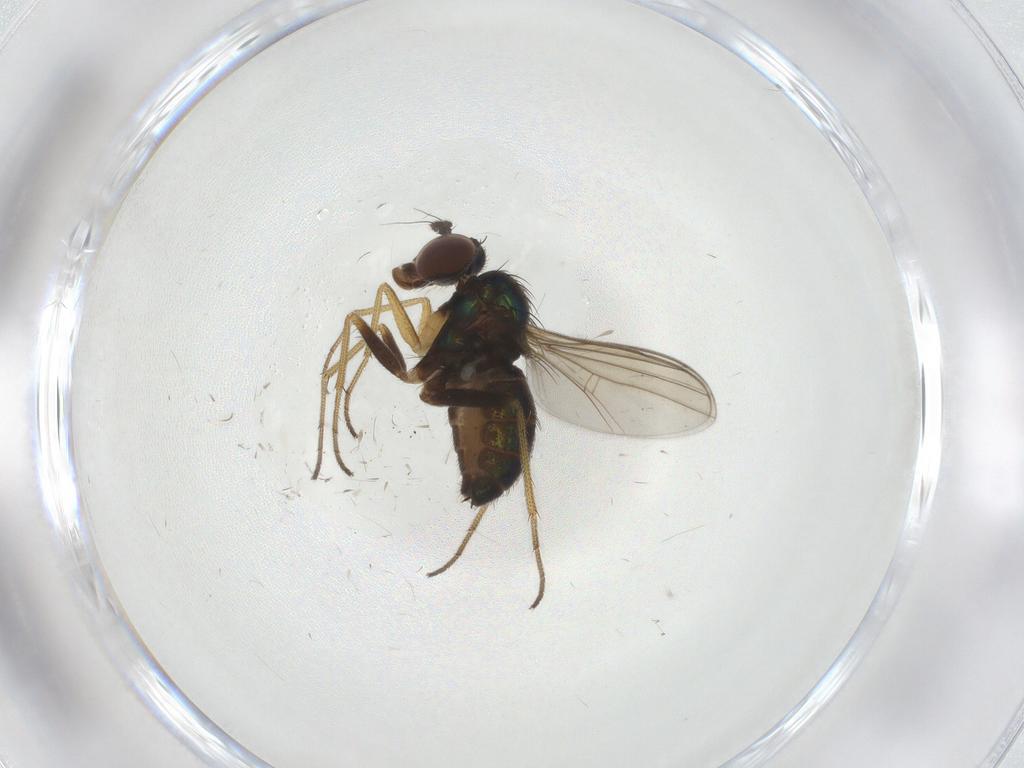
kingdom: Animalia
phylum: Arthropoda
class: Insecta
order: Diptera
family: Dolichopodidae
